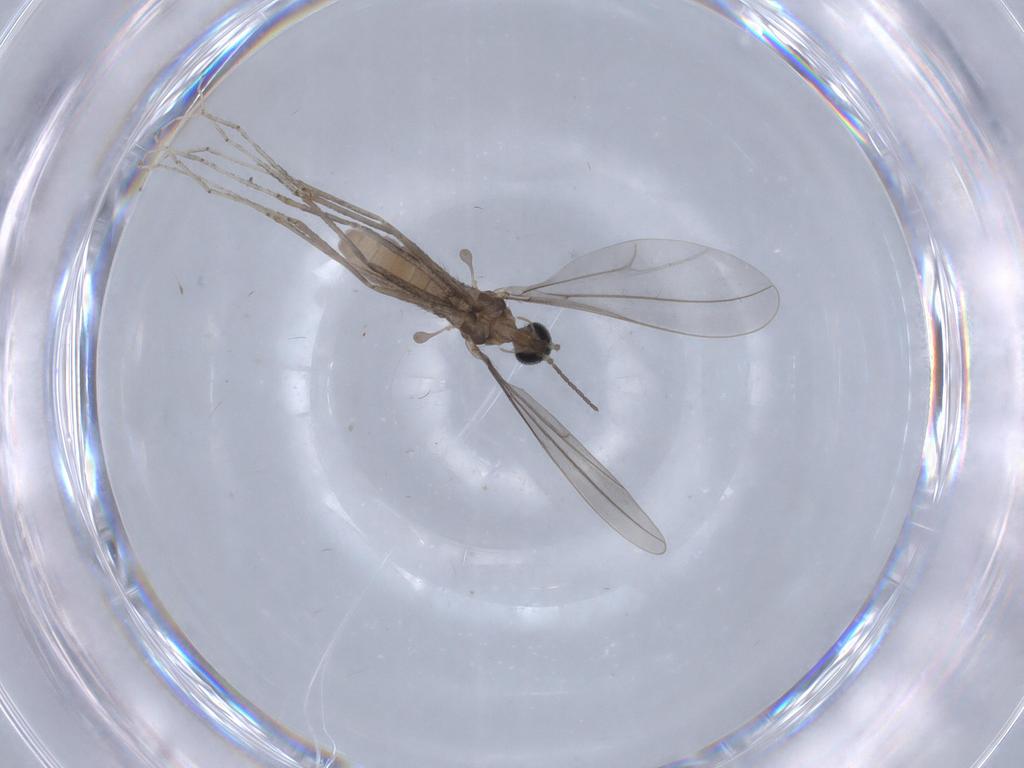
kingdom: Animalia
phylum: Arthropoda
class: Insecta
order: Diptera
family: Cecidomyiidae
